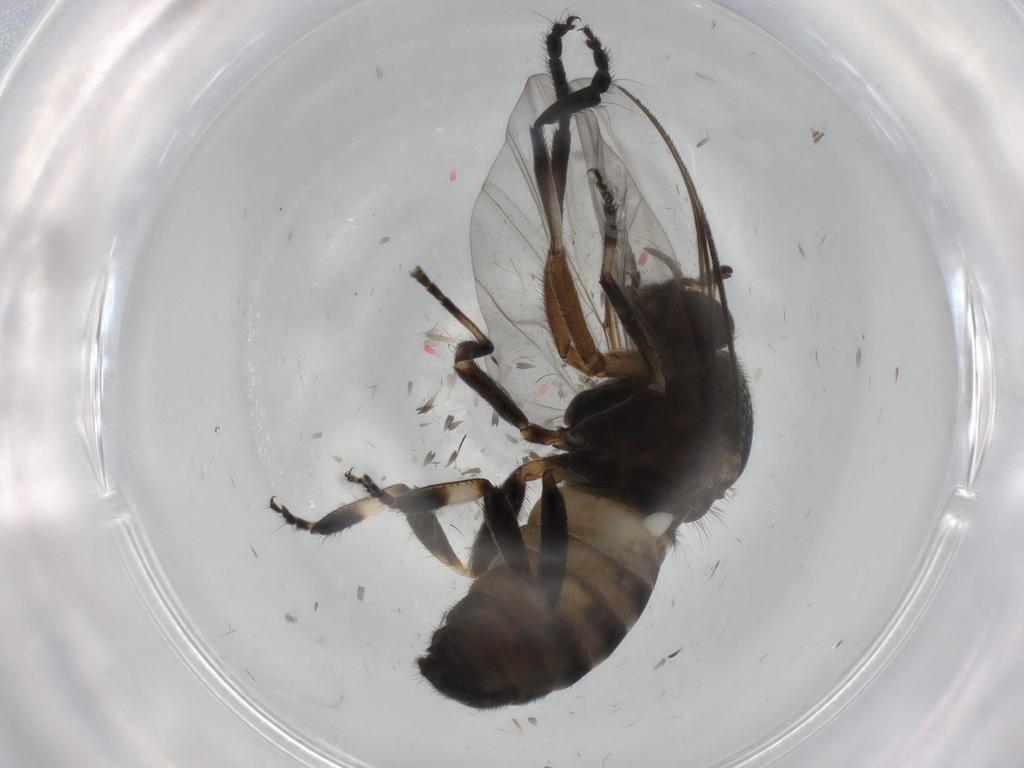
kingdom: Animalia
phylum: Arthropoda
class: Insecta
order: Diptera
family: Simuliidae
